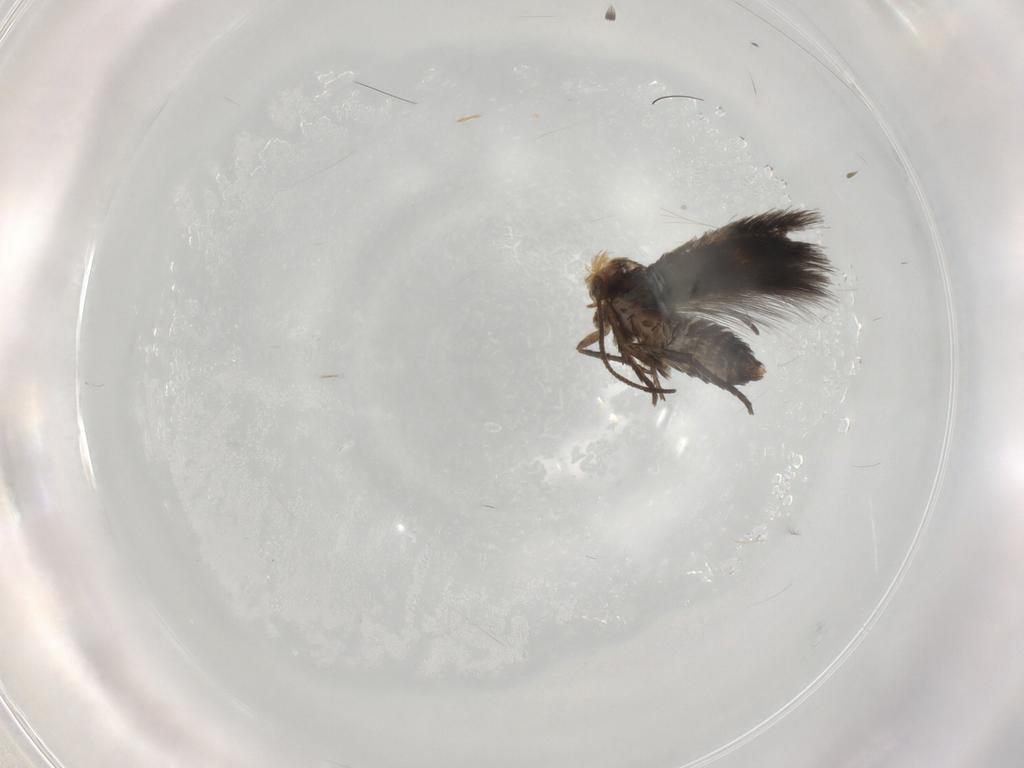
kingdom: Animalia
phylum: Arthropoda
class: Insecta
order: Lepidoptera
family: Nepticulidae
